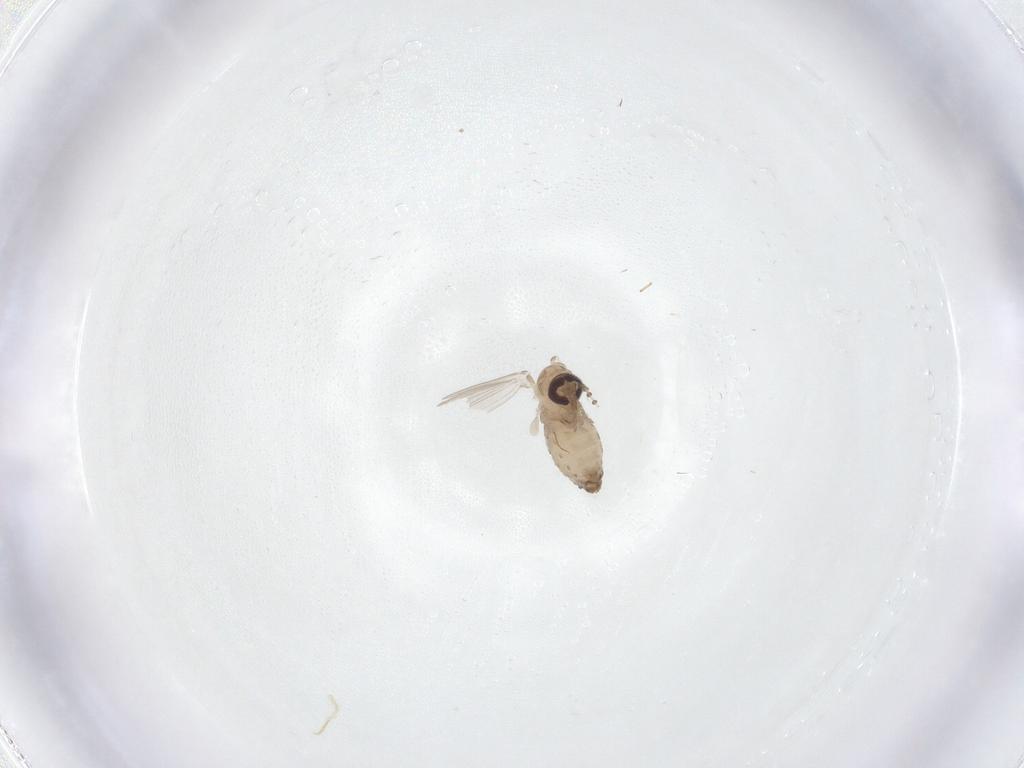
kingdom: Animalia
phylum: Arthropoda
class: Insecta
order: Diptera
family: Psychodidae
